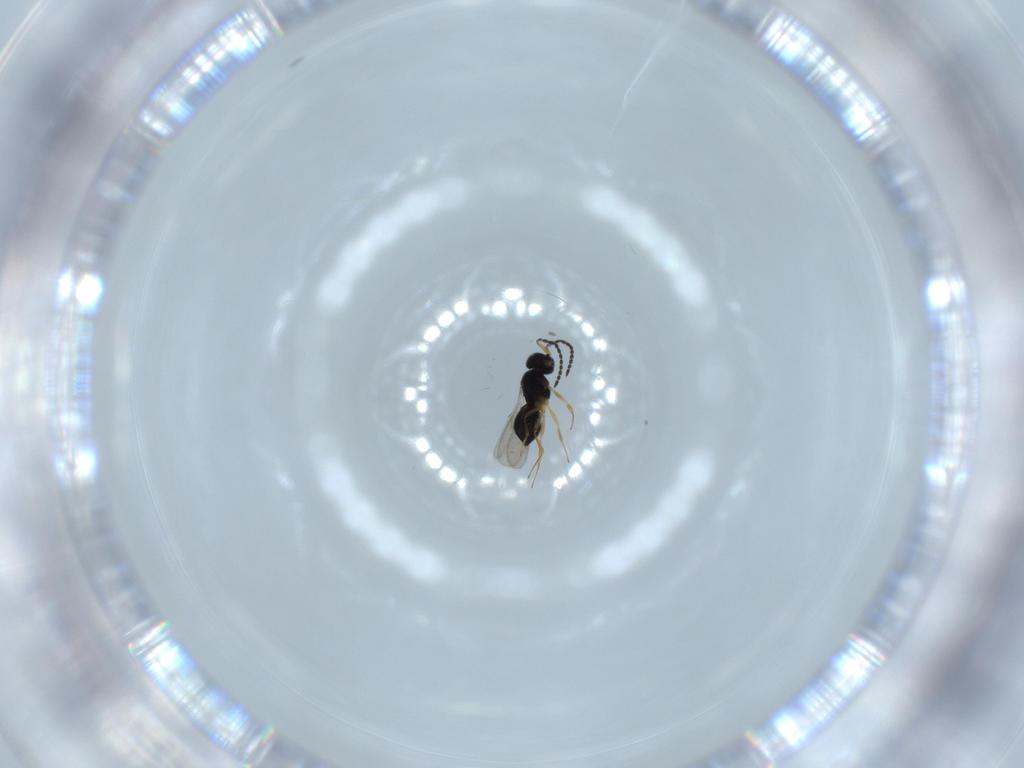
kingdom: Animalia
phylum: Arthropoda
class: Insecta
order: Hymenoptera
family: Scelionidae
